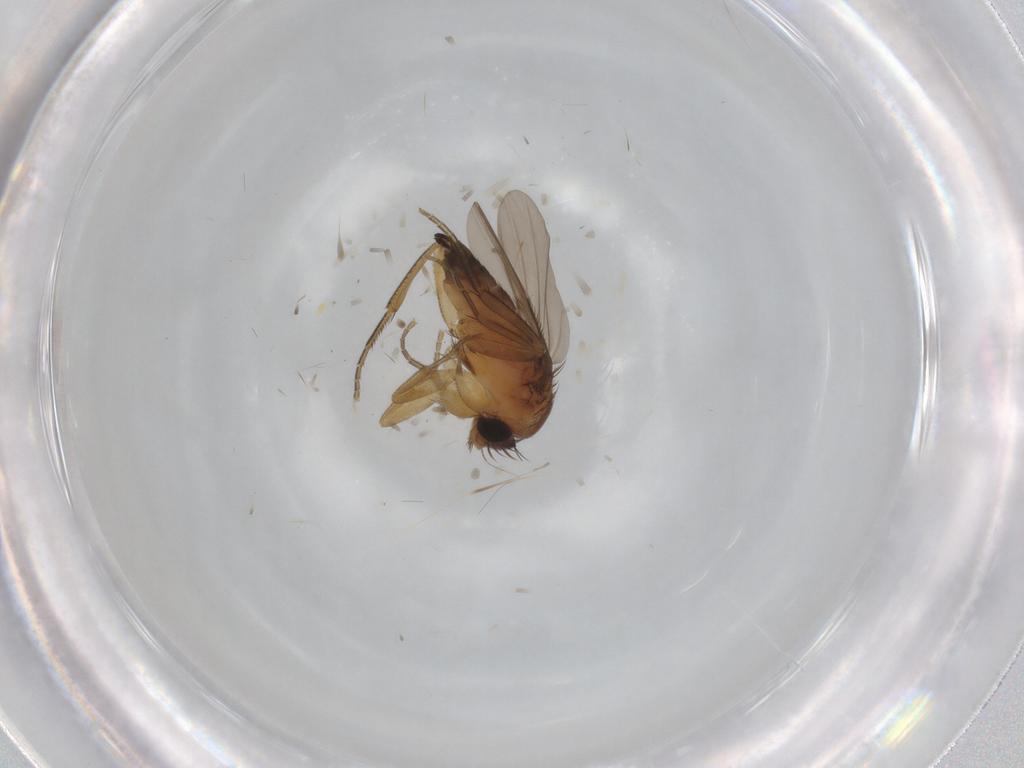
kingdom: Animalia
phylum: Arthropoda
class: Insecta
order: Diptera
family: Phoridae
